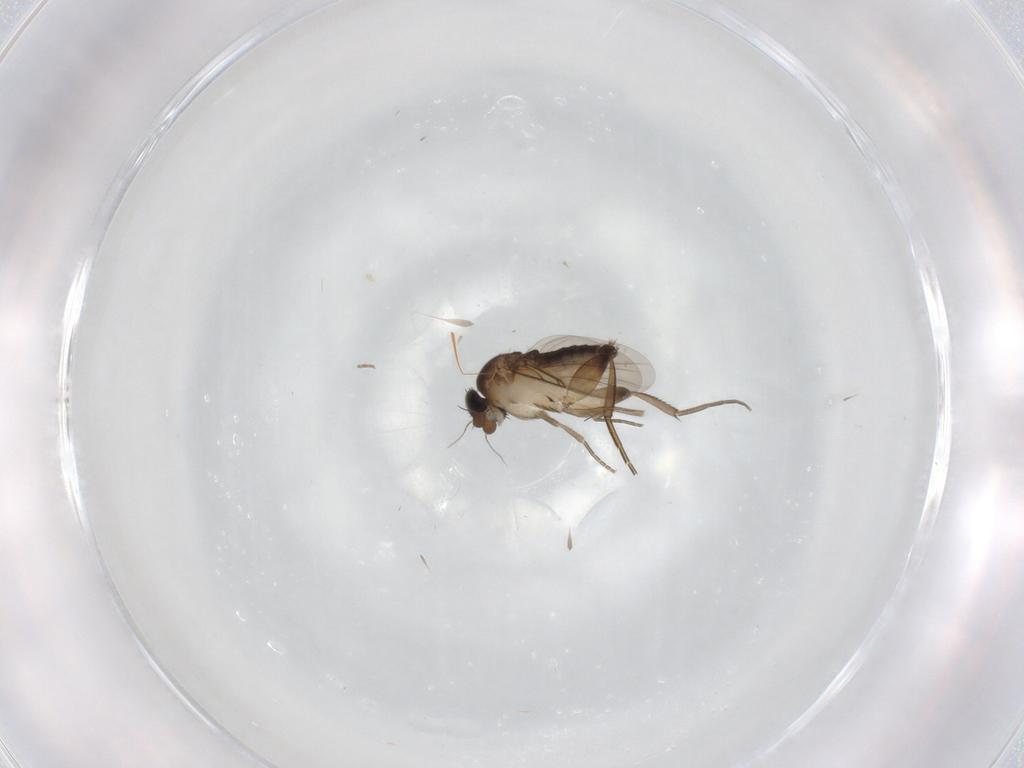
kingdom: Animalia
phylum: Arthropoda
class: Insecta
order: Diptera
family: Phoridae
